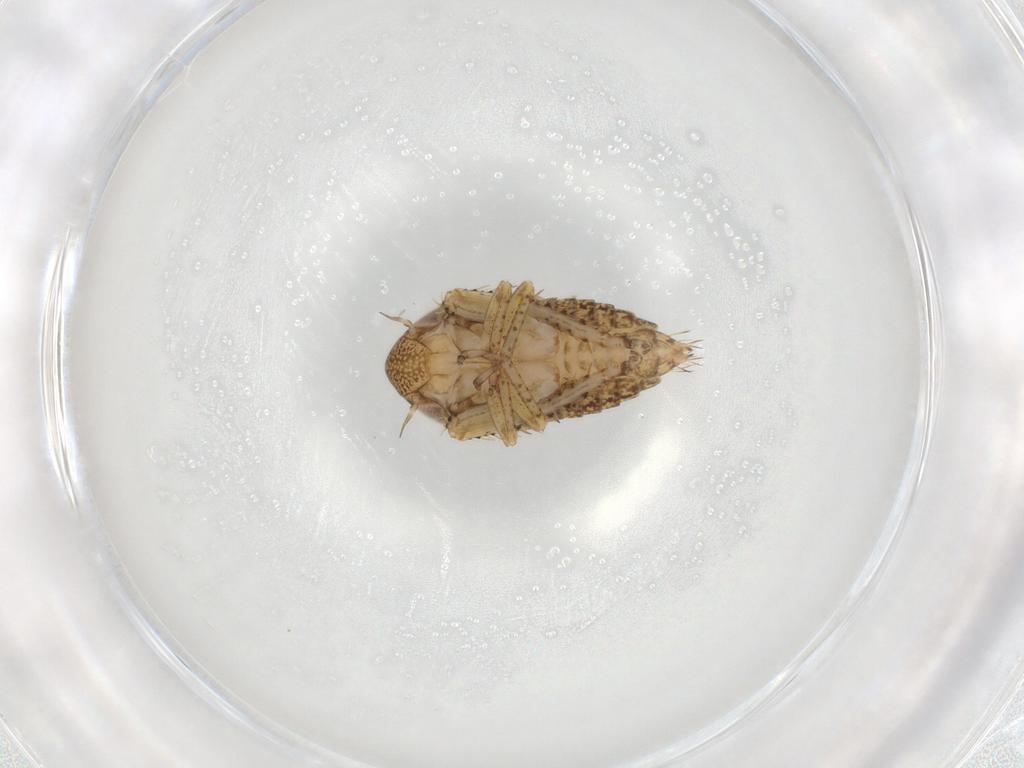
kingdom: Animalia
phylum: Arthropoda
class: Insecta
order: Hemiptera
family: Cicadellidae
